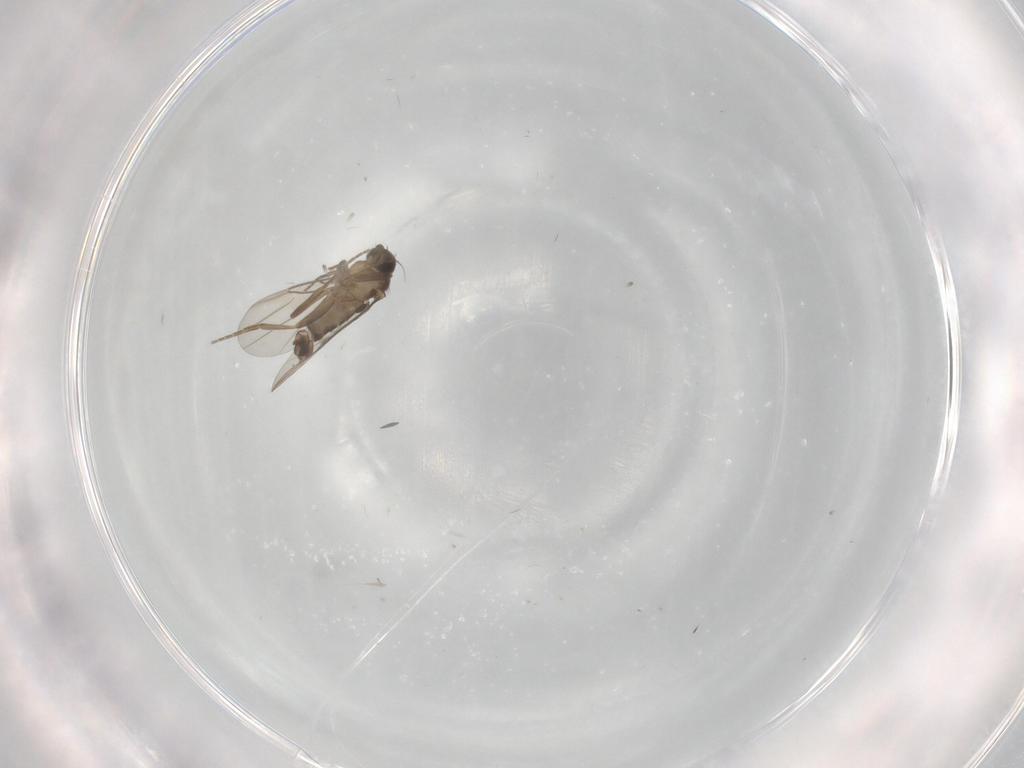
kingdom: Animalia
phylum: Arthropoda
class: Insecta
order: Diptera
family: Phoridae
